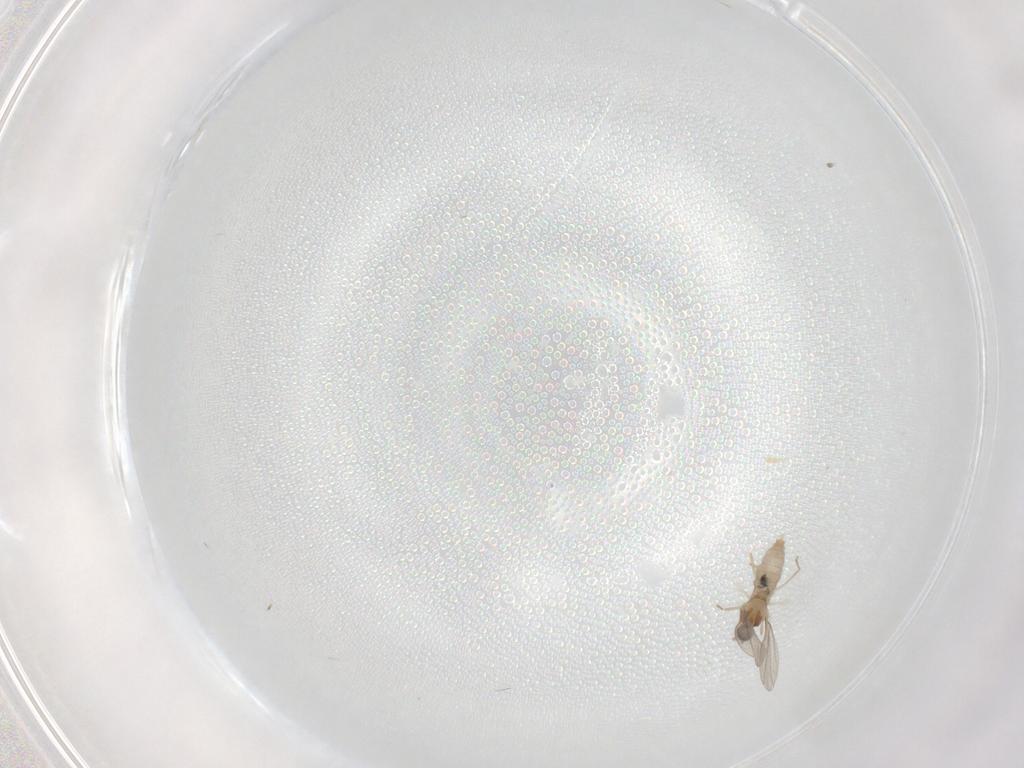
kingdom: Animalia
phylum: Arthropoda
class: Insecta
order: Diptera
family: Cecidomyiidae
